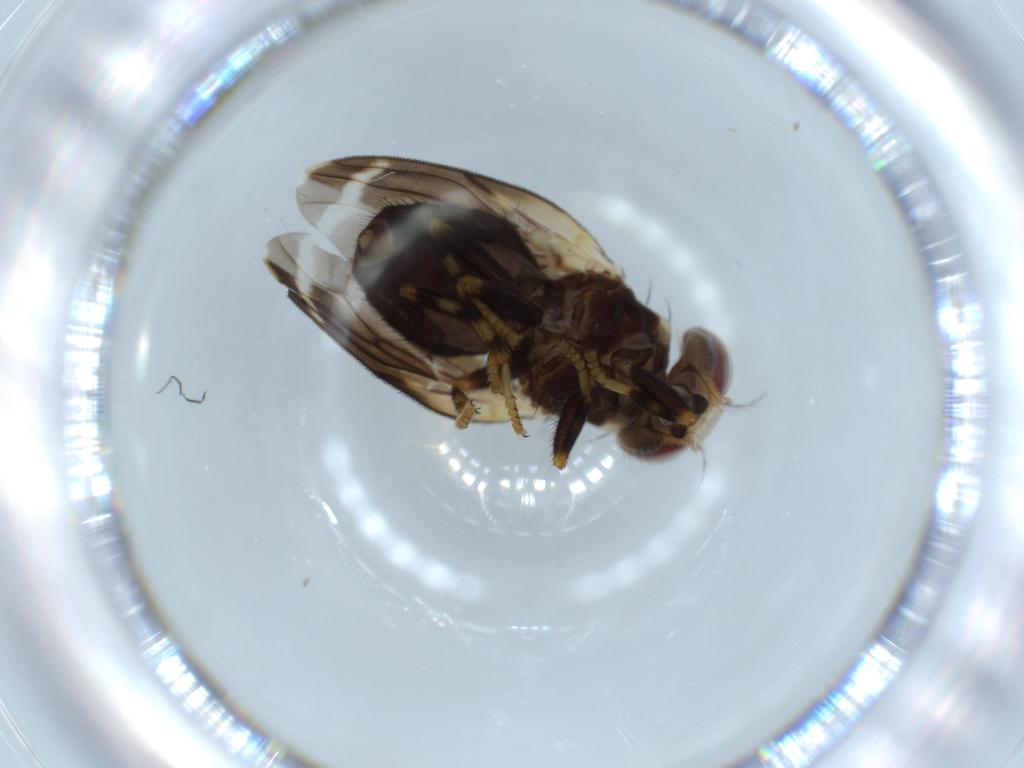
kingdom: Animalia
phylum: Arthropoda
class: Insecta
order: Diptera
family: Periscelididae
